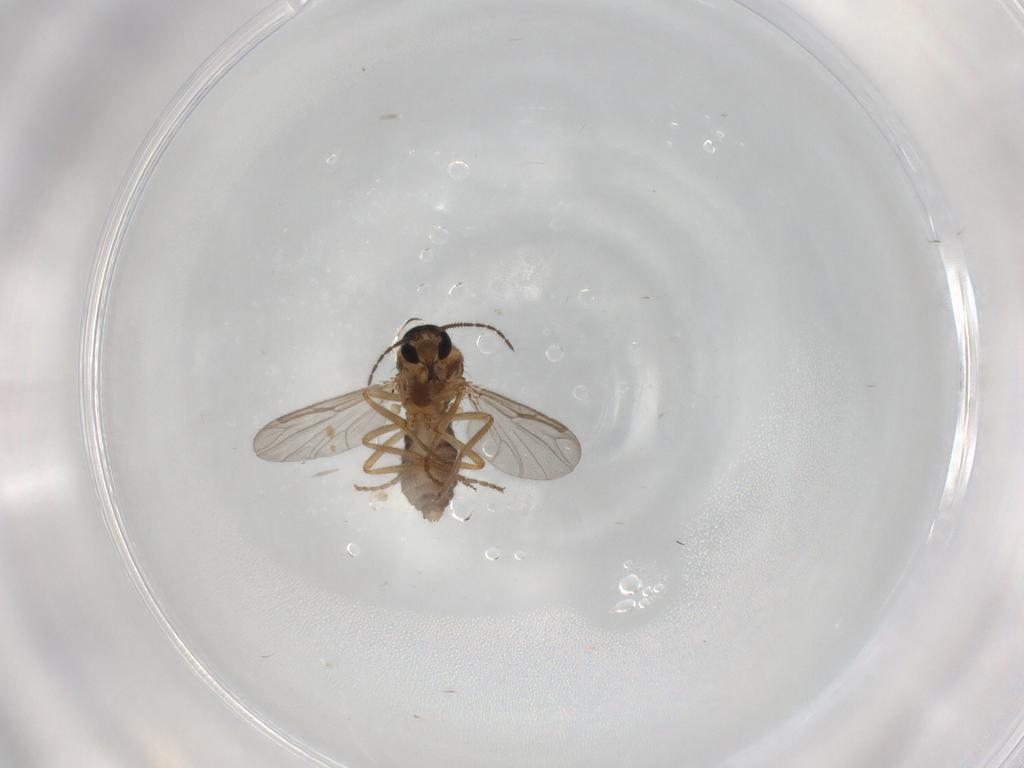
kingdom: Animalia
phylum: Arthropoda
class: Insecta
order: Diptera
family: Ceratopogonidae
